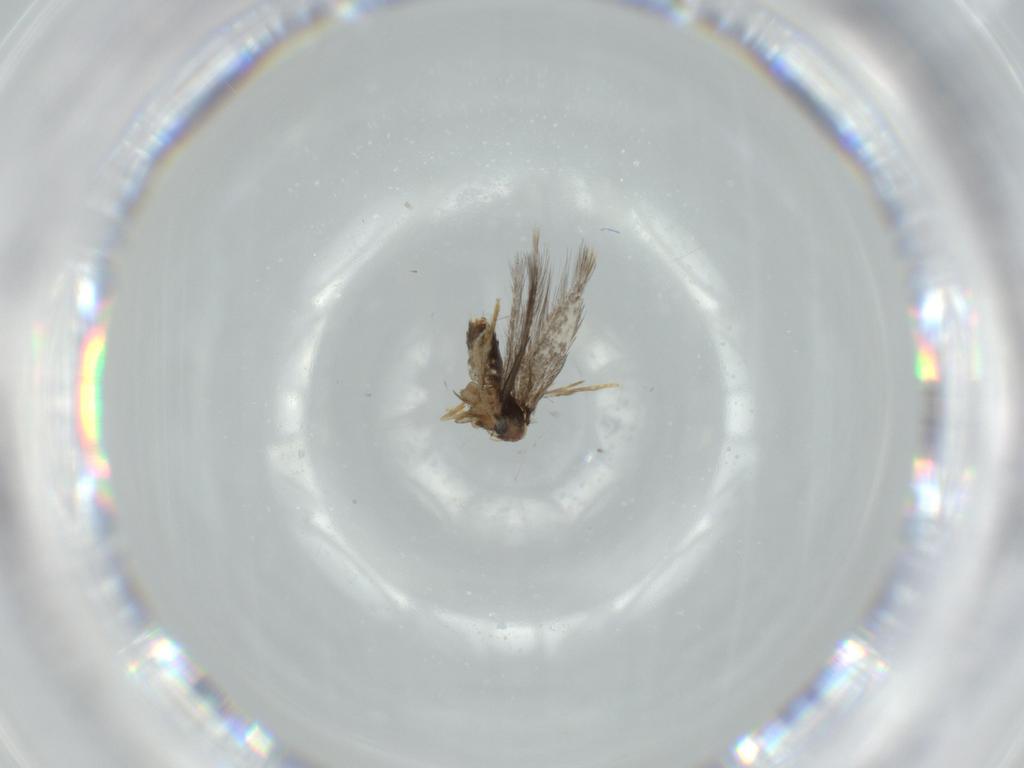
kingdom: Animalia
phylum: Arthropoda
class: Insecta
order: Lepidoptera
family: Nepticulidae
